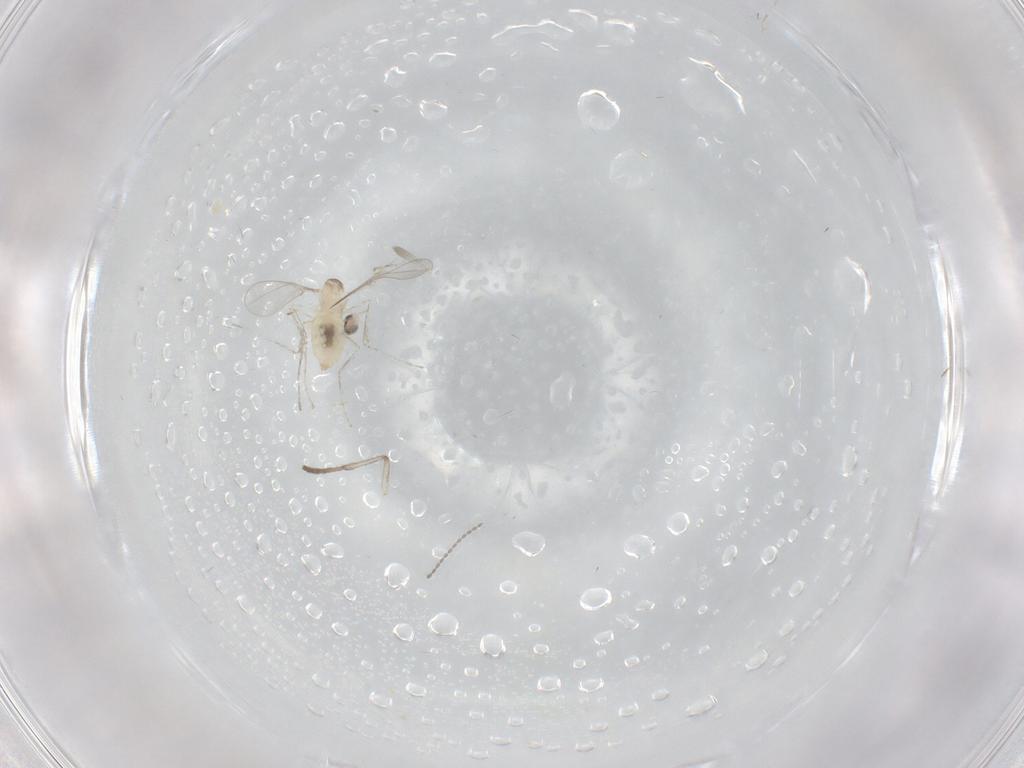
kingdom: Animalia
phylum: Arthropoda
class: Insecta
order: Diptera
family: Cecidomyiidae
